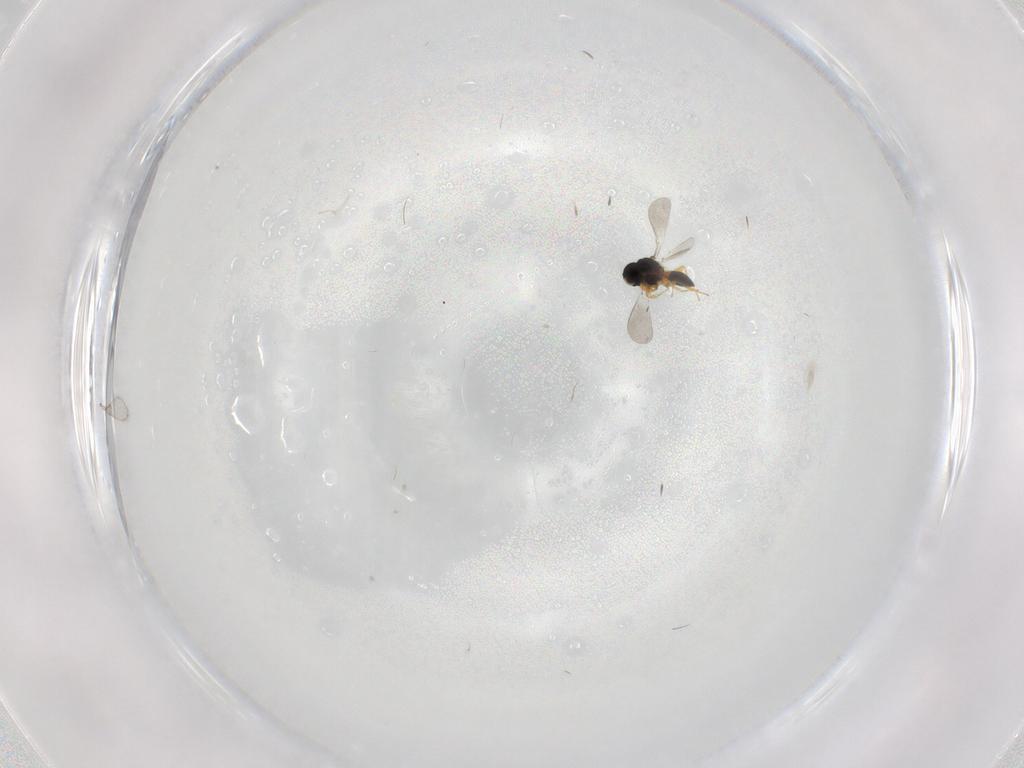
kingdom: Animalia
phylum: Arthropoda
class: Insecta
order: Hymenoptera
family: Platygastridae
